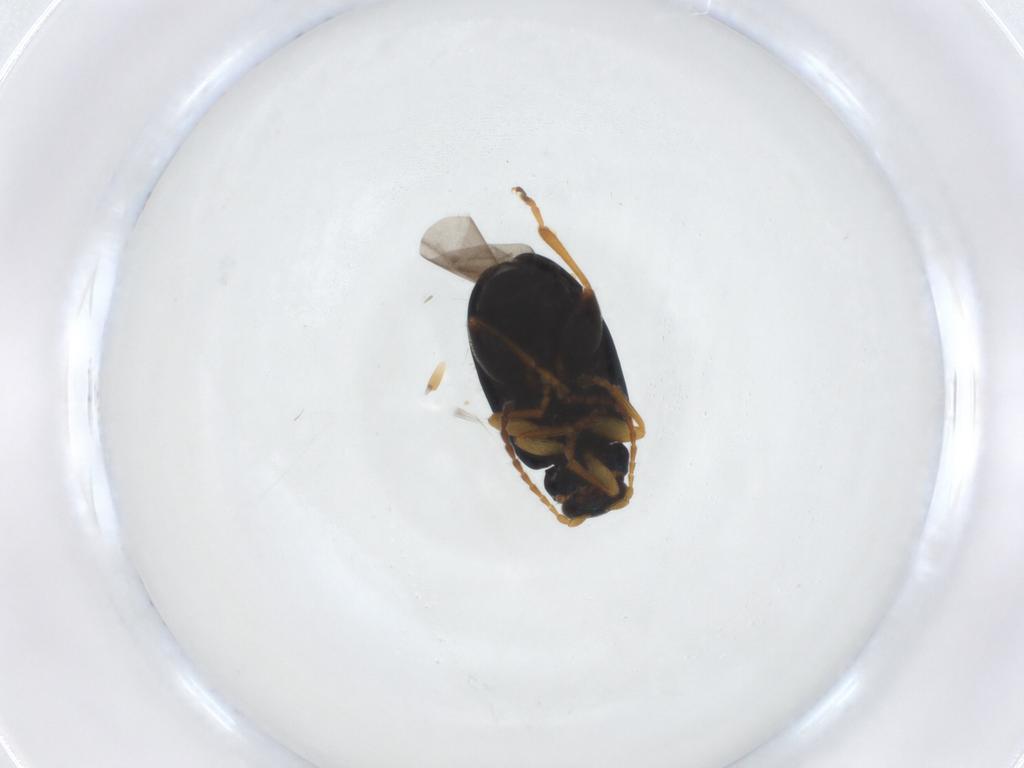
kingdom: Animalia
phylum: Arthropoda
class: Insecta
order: Coleoptera
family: Chrysomelidae
